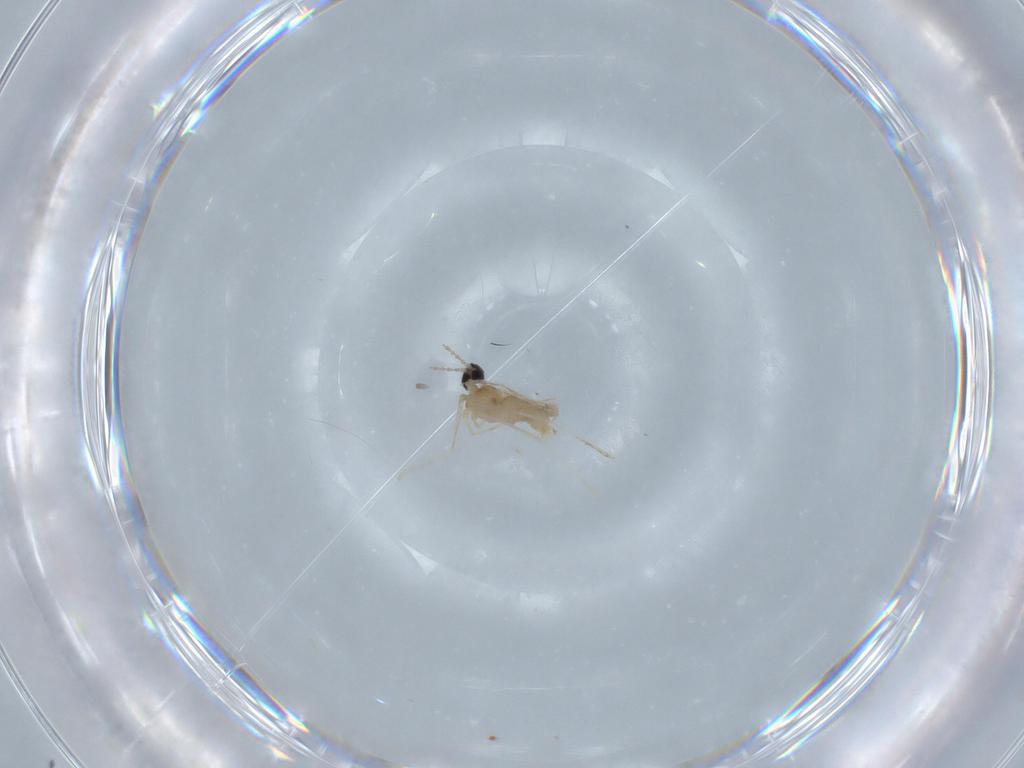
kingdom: Animalia
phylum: Arthropoda
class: Insecta
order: Diptera
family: Cecidomyiidae
